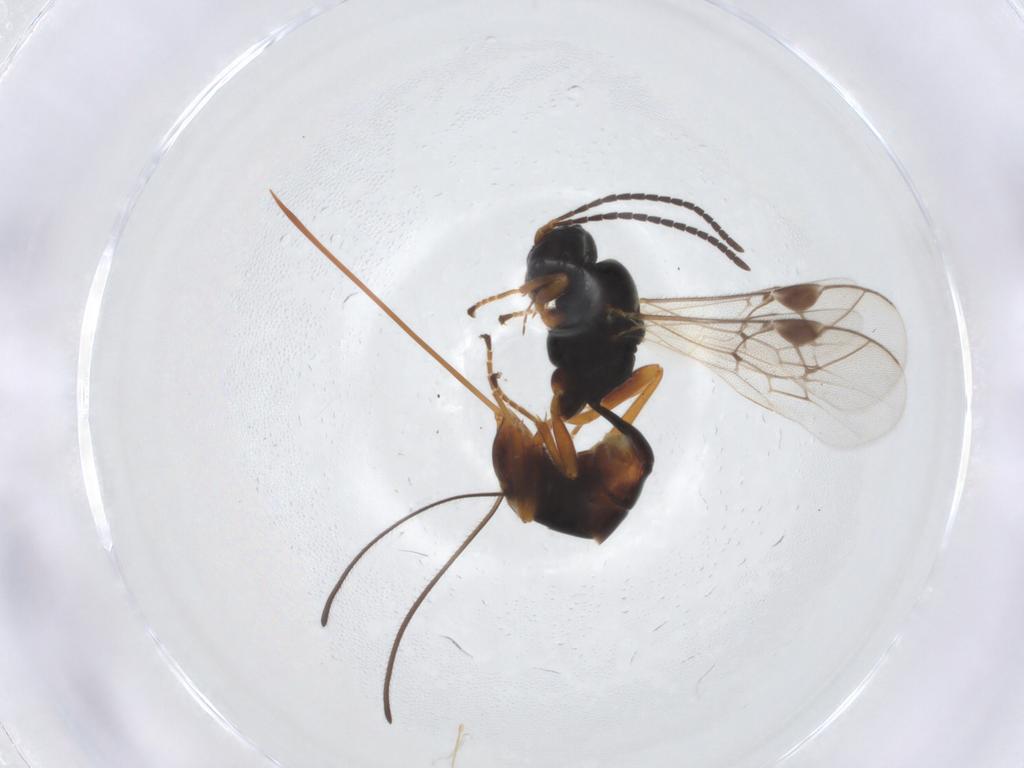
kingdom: Animalia
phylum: Arthropoda
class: Insecta
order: Hymenoptera
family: Ichneumonidae
